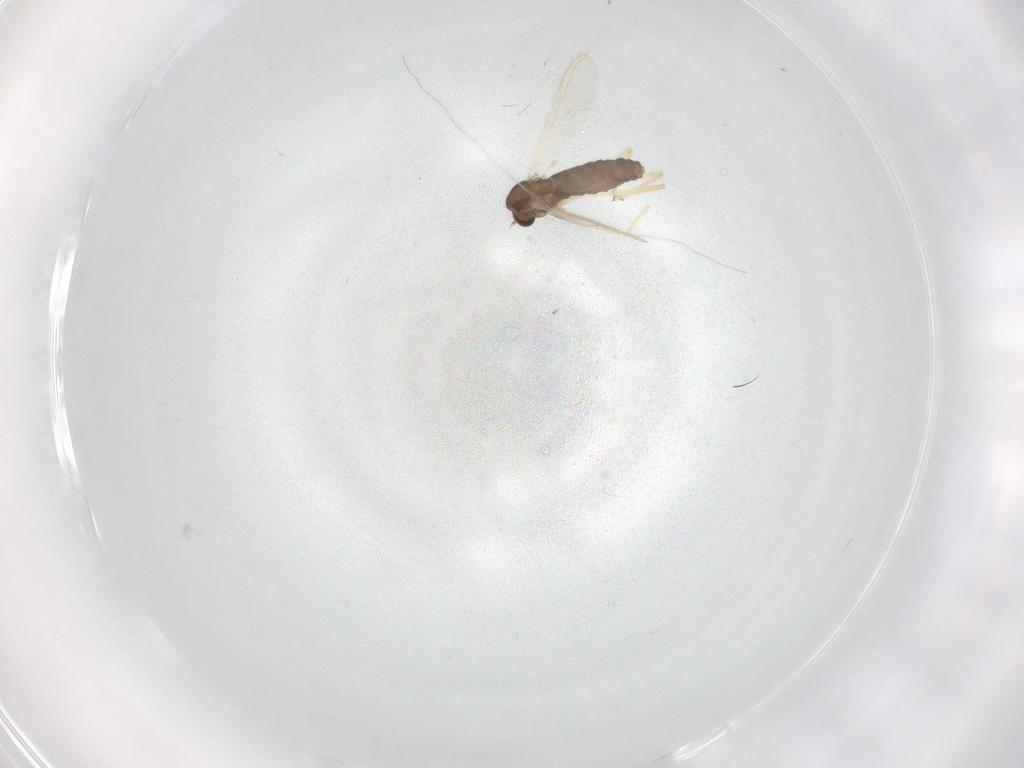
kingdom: Animalia
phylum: Arthropoda
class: Insecta
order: Diptera
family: Chironomidae
